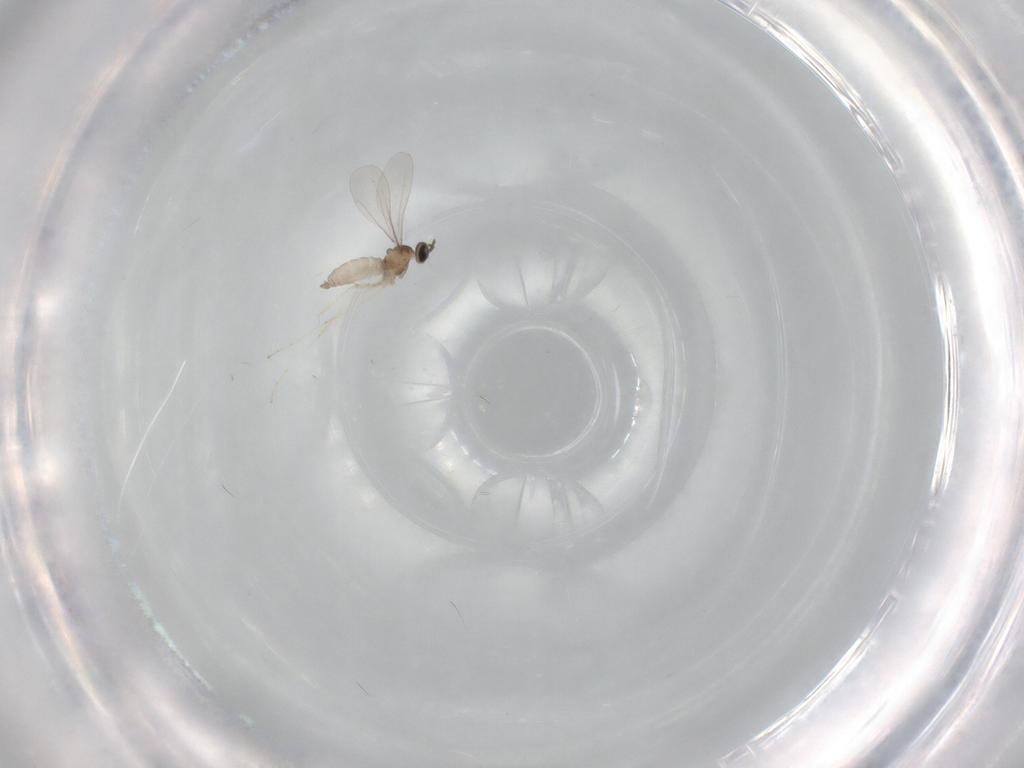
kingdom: Animalia
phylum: Arthropoda
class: Insecta
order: Diptera
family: Cecidomyiidae
